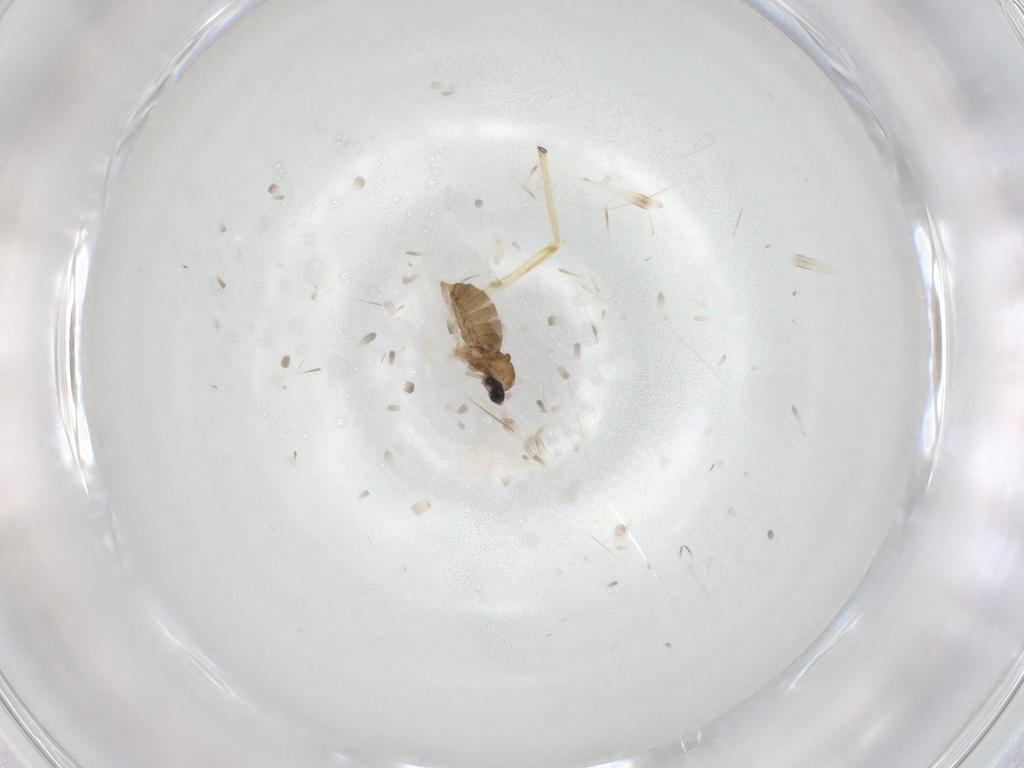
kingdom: Animalia
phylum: Arthropoda
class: Insecta
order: Diptera
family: Cecidomyiidae
